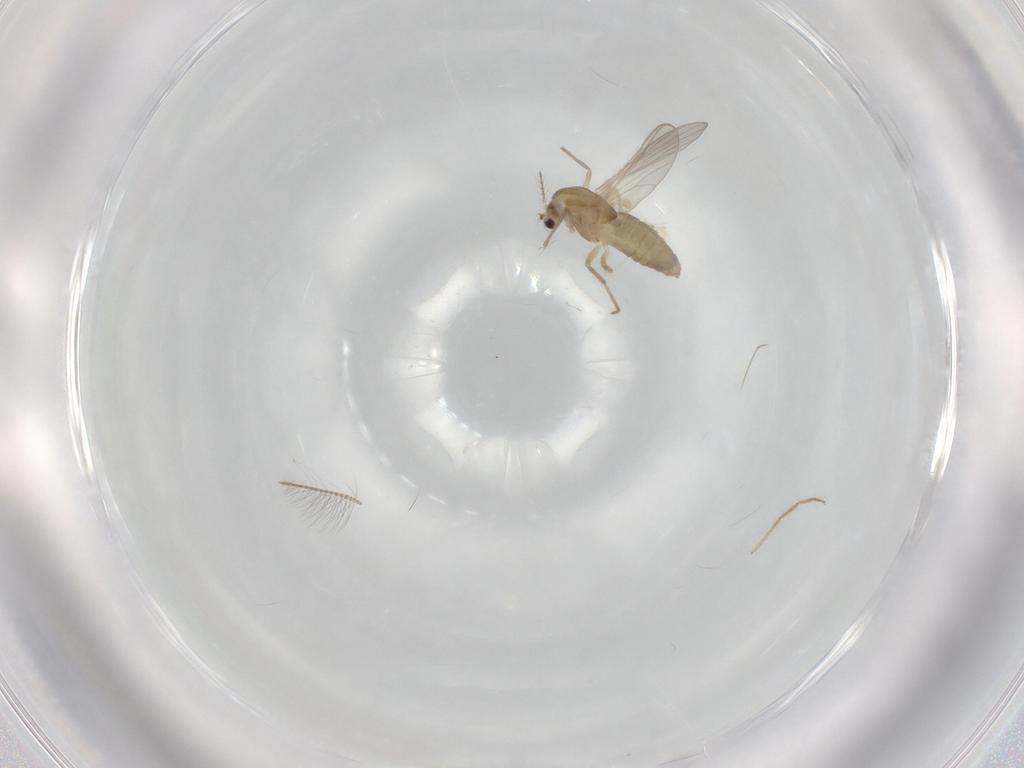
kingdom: Animalia
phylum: Arthropoda
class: Insecta
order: Diptera
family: Chironomidae
